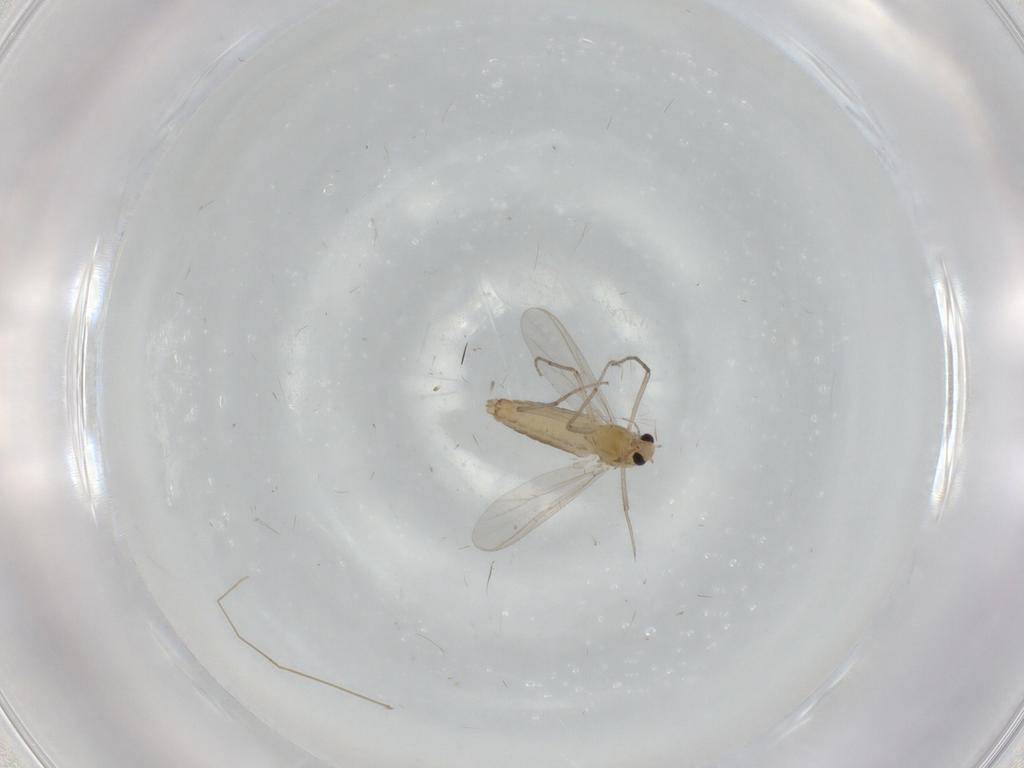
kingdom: Animalia
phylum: Arthropoda
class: Insecta
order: Diptera
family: Chironomidae
